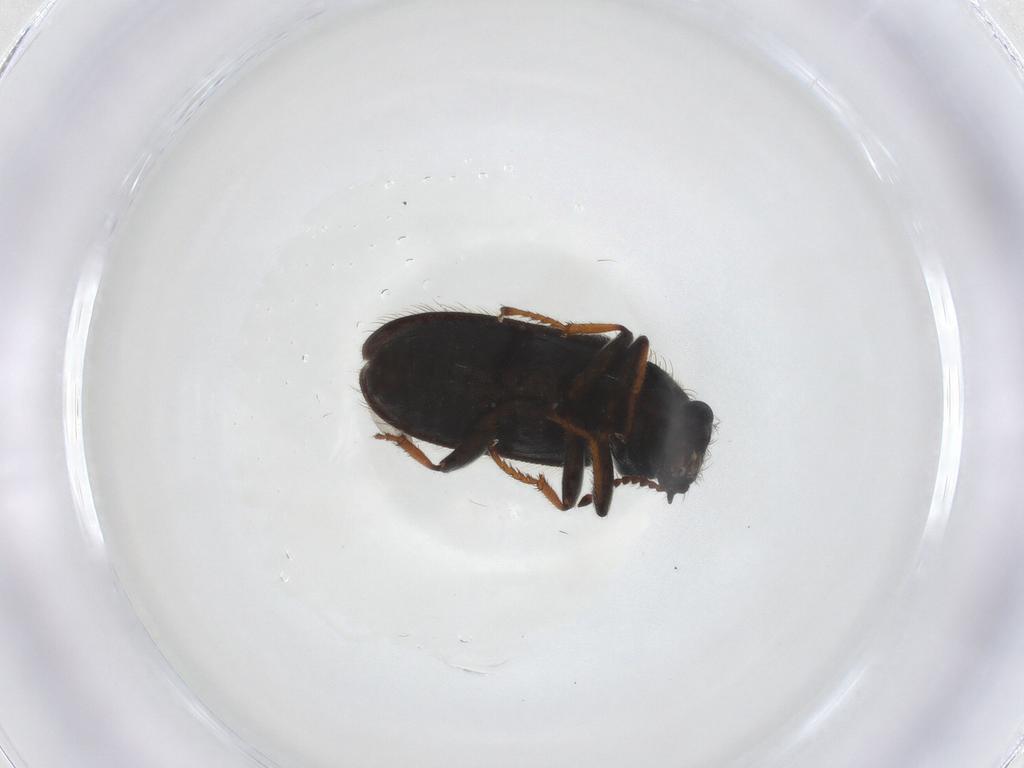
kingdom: Animalia
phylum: Arthropoda
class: Insecta
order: Coleoptera
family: Melyridae
